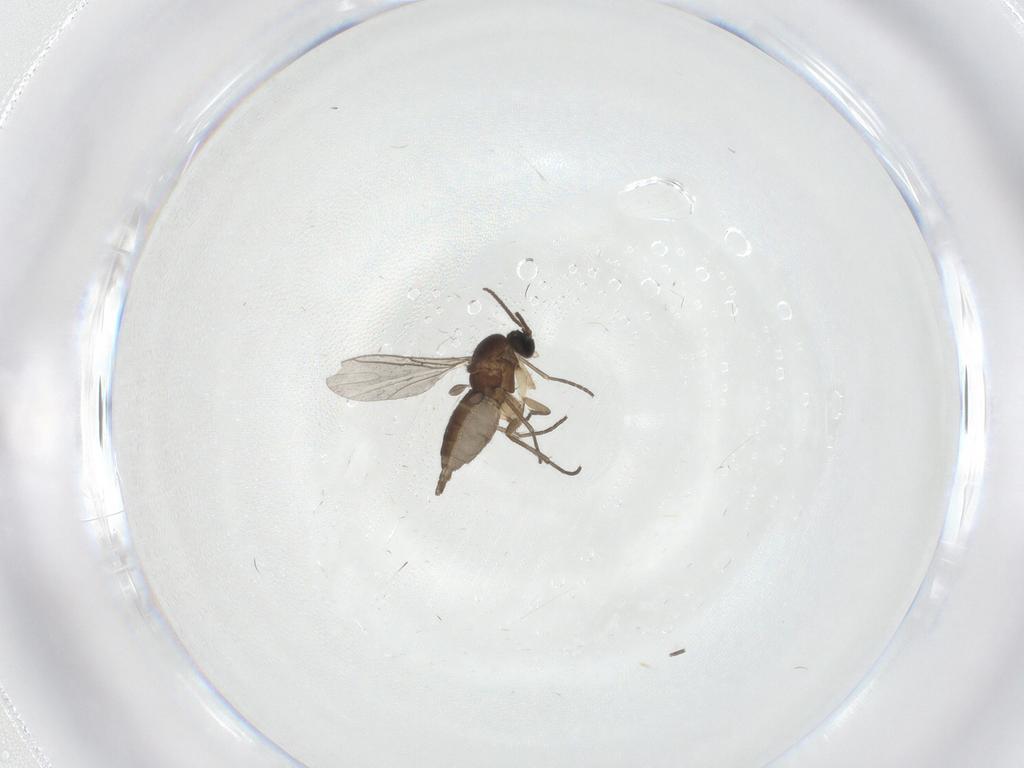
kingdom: Animalia
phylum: Arthropoda
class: Insecta
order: Diptera
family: Sciaridae
